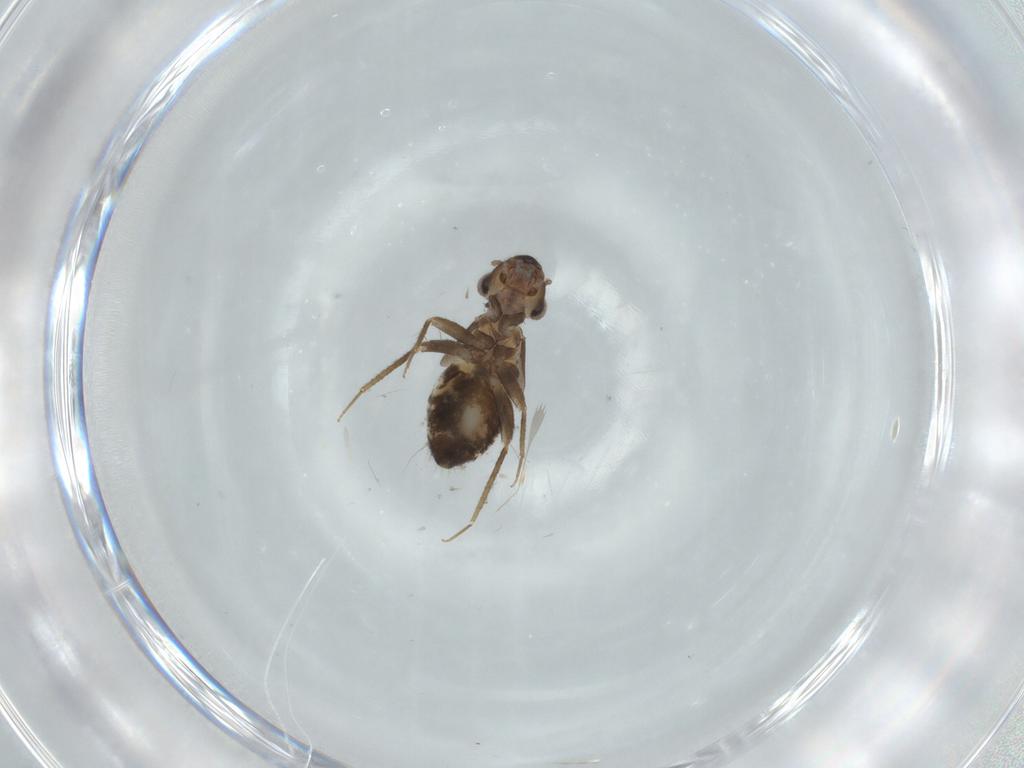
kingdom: Animalia
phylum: Arthropoda
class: Insecta
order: Psocodea
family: Lepidopsocidae
